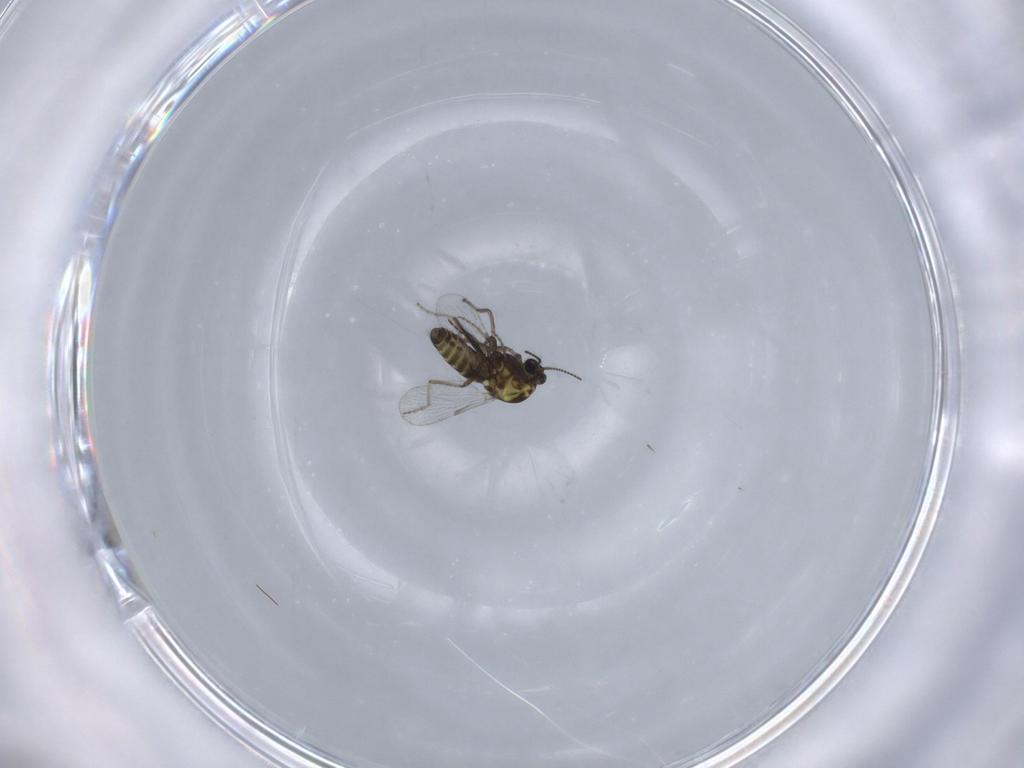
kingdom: Animalia
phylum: Arthropoda
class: Insecta
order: Diptera
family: Ceratopogonidae
